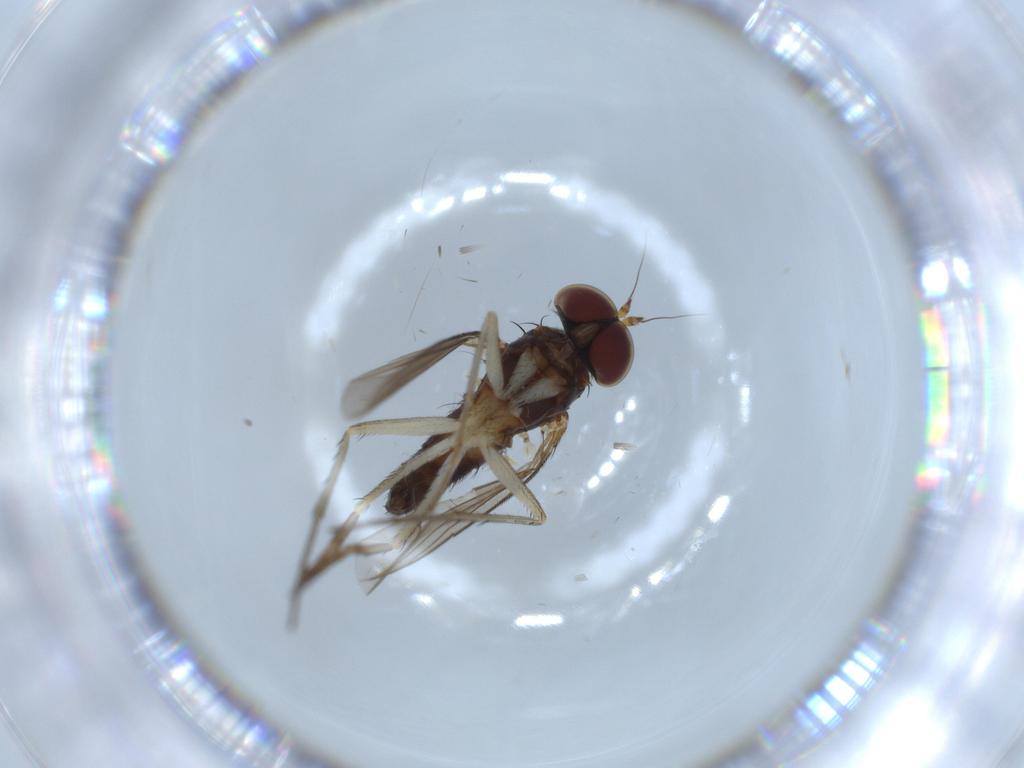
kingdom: Animalia
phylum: Arthropoda
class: Insecta
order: Diptera
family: Dolichopodidae
